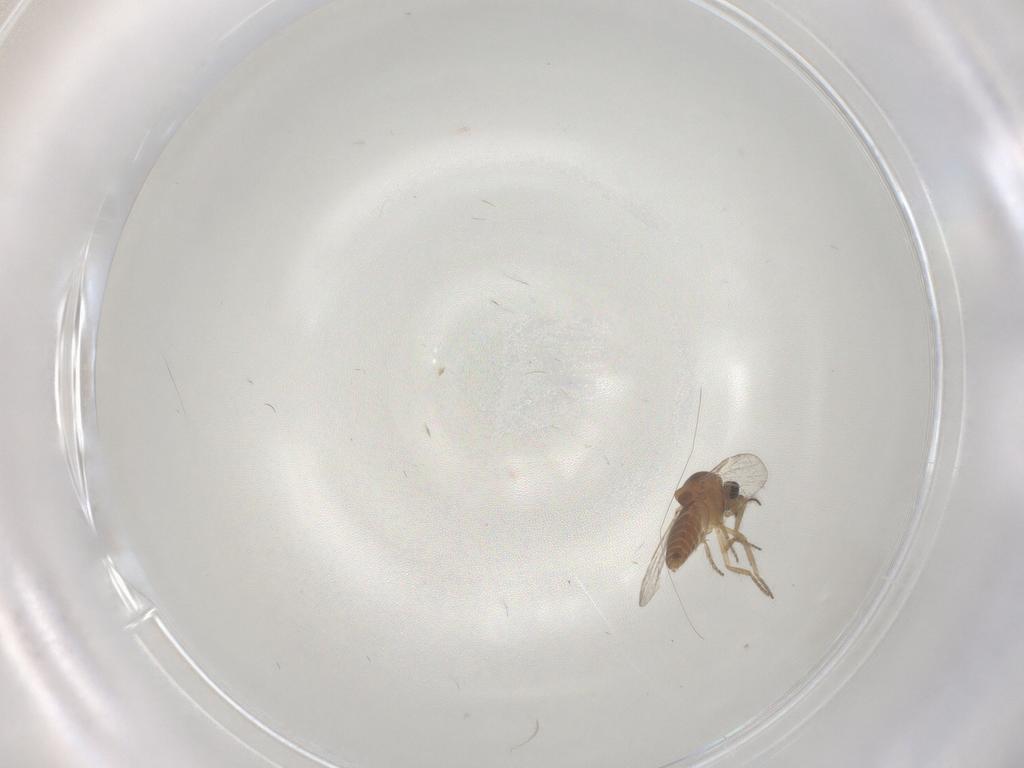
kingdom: Animalia
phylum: Arthropoda
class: Insecta
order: Diptera
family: Ceratopogonidae
